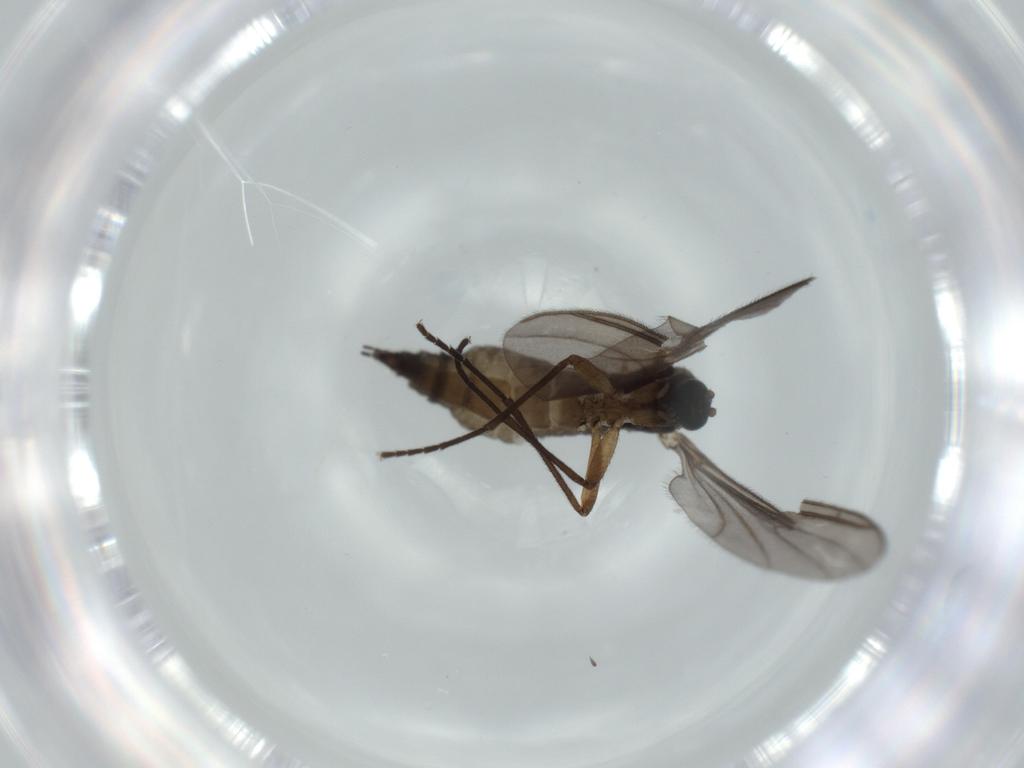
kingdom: Animalia
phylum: Arthropoda
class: Insecta
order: Diptera
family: Sciaridae
